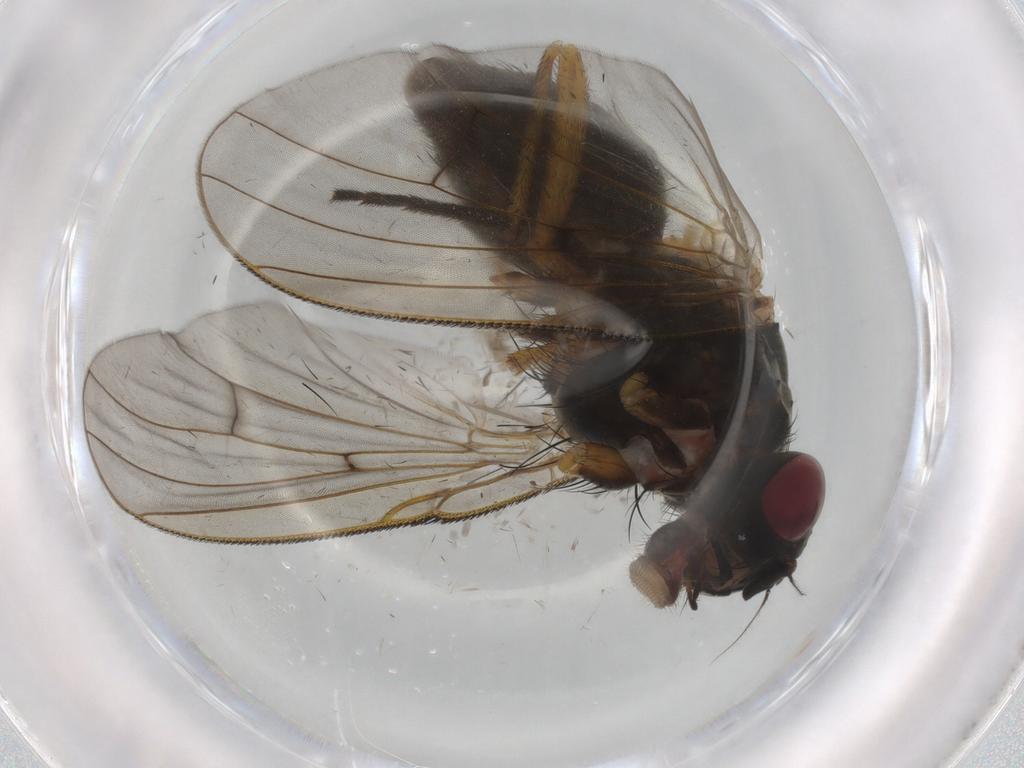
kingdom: Animalia
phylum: Arthropoda
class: Insecta
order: Diptera
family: Muscidae
